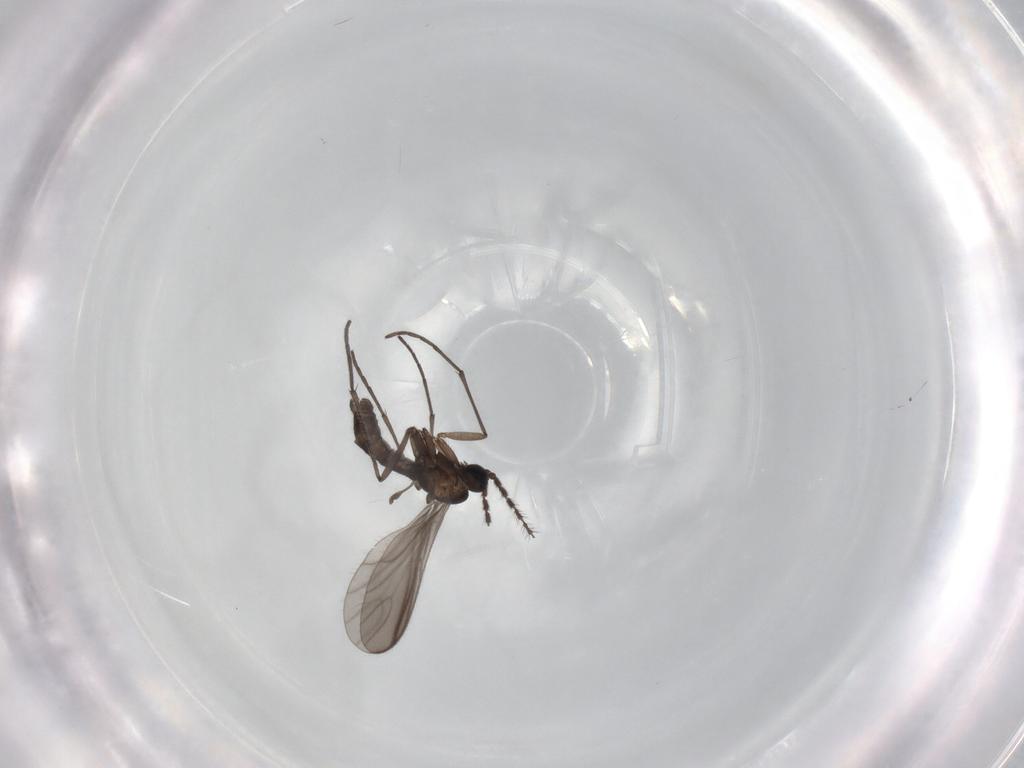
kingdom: Animalia
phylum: Arthropoda
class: Insecta
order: Diptera
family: Sciaridae
